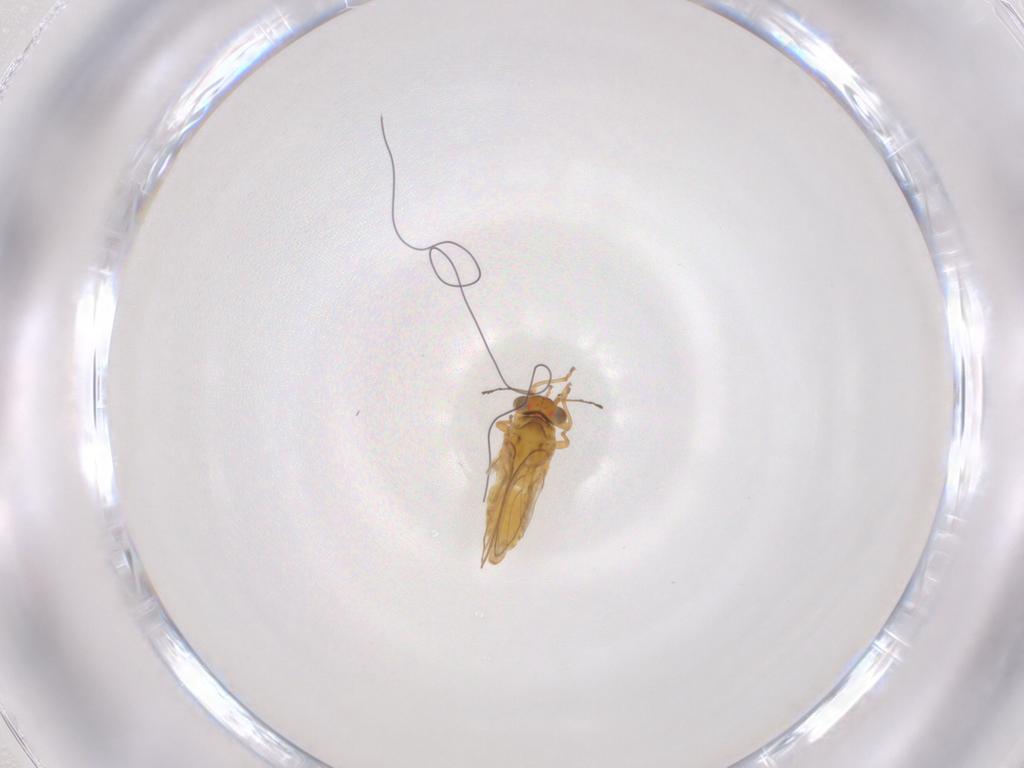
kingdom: Animalia
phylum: Arthropoda
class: Insecta
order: Hemiptera
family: Psylloidea_incertae_sedis
